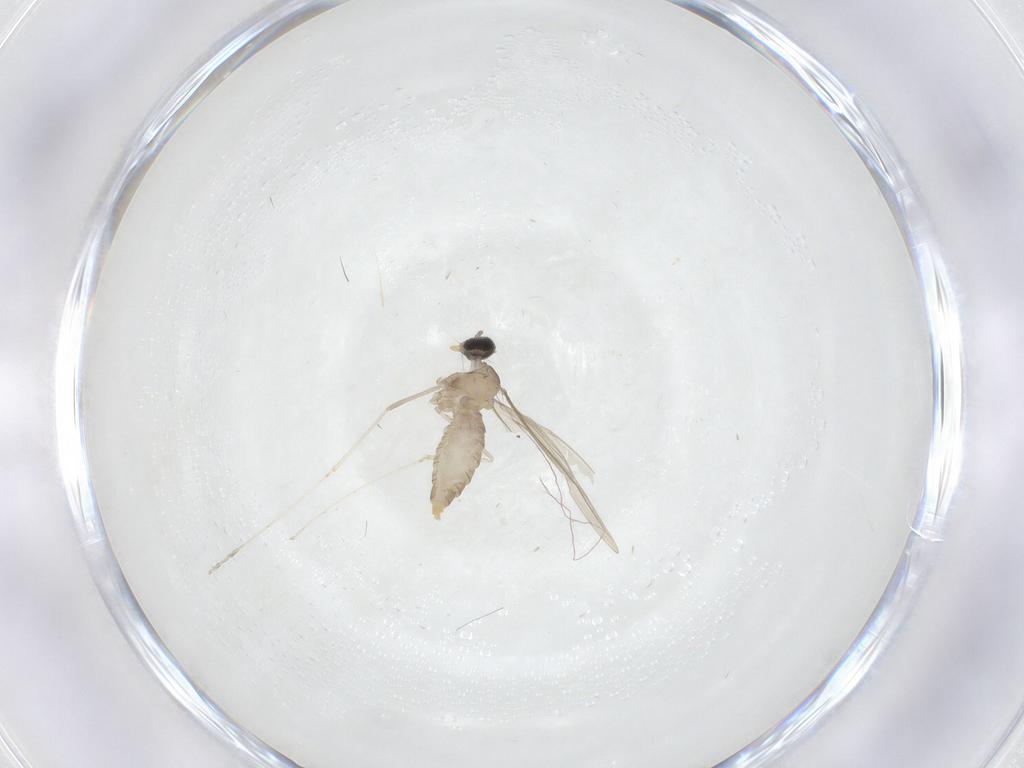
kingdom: Animalia
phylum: Arthropoda
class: Insecta
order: Diptera
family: Cecidomyiidae
